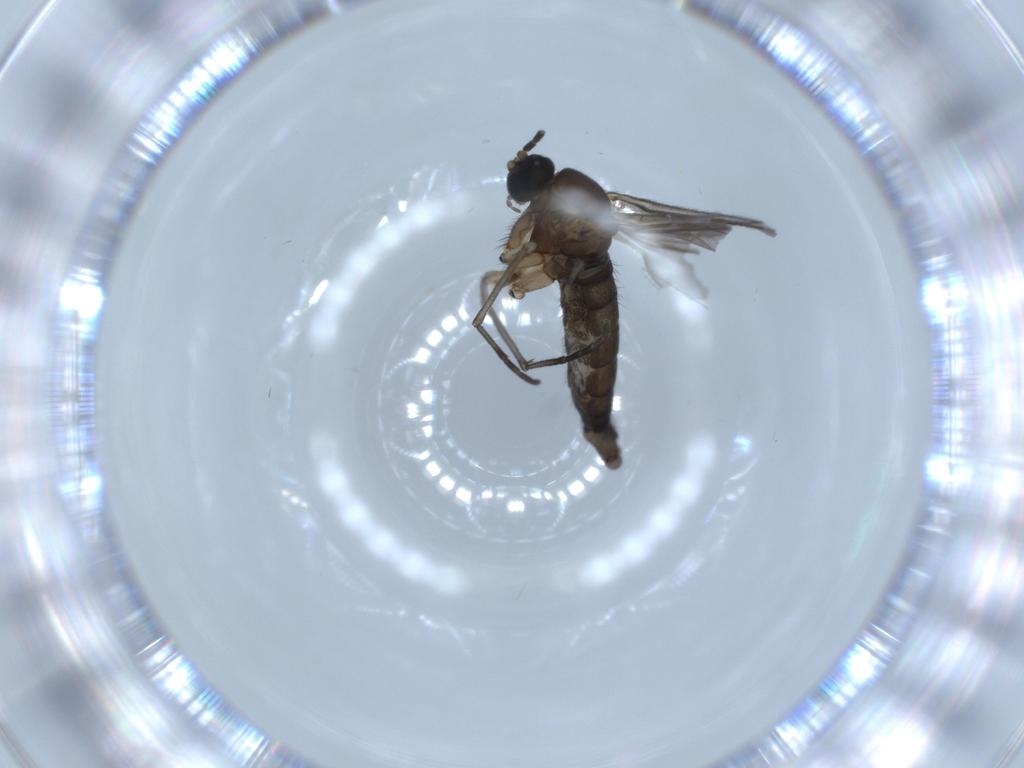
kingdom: Animalia
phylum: Arthropoda
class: Insecta
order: Diptera
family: Sciaridae
